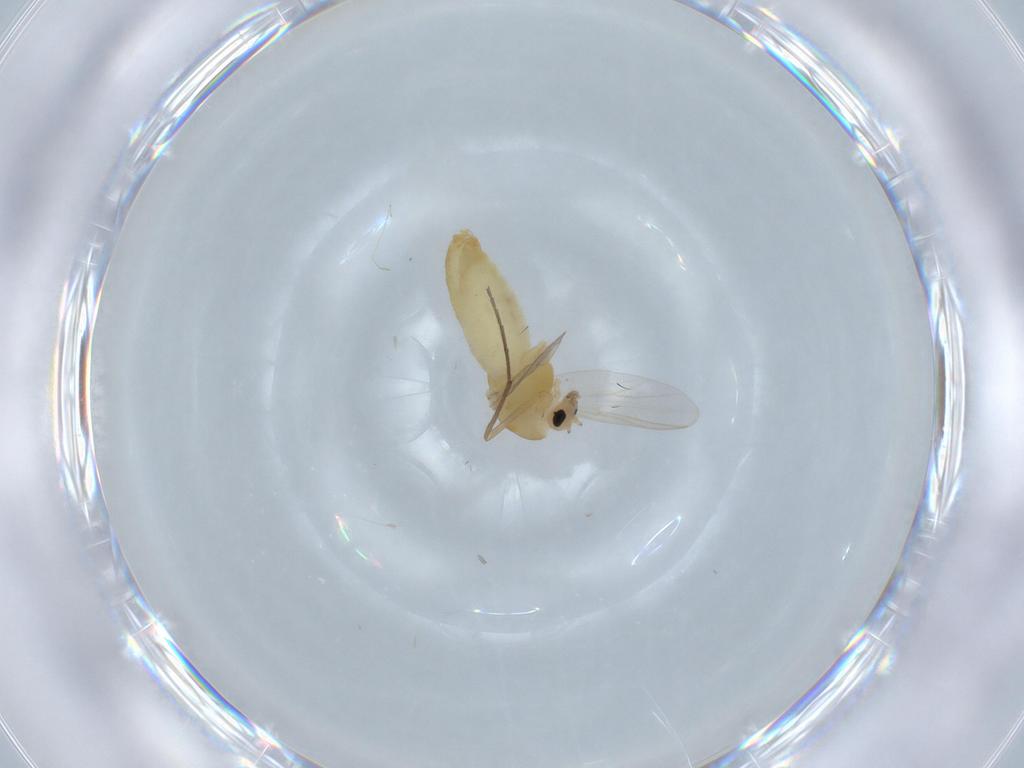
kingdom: Animalia
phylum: Arthropoda
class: Insecta
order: Diptera
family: Chironomidae
